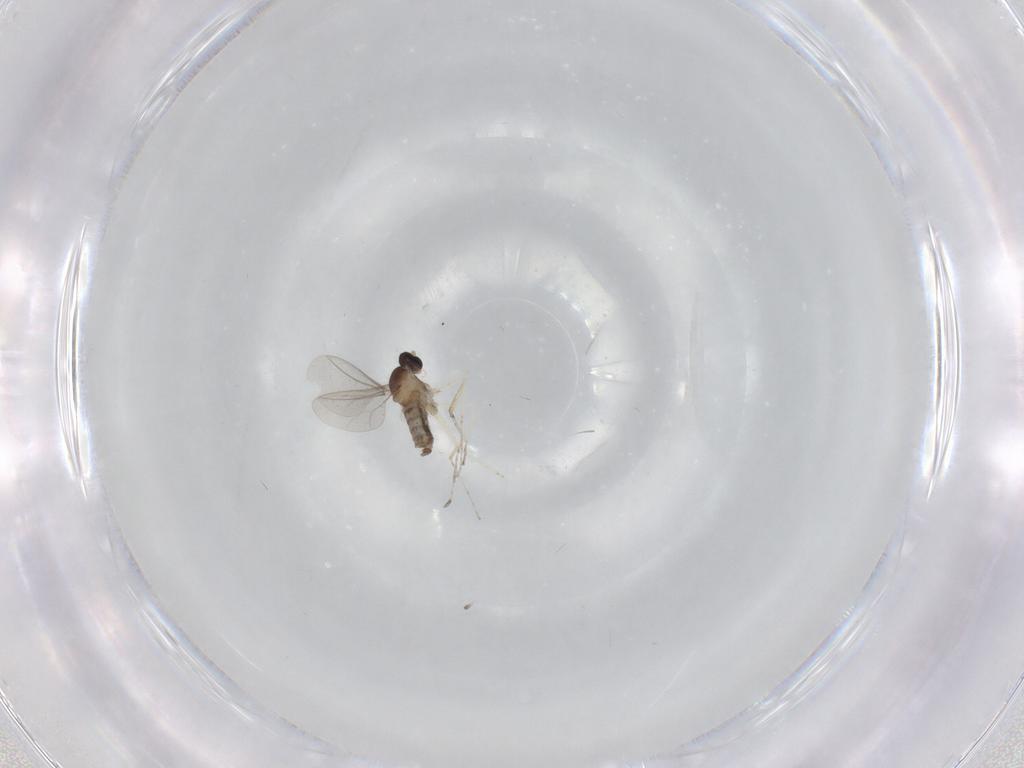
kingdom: Animalia
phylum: Arthropoda
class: Insecta
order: Diptera
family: Cecidomyiidae
